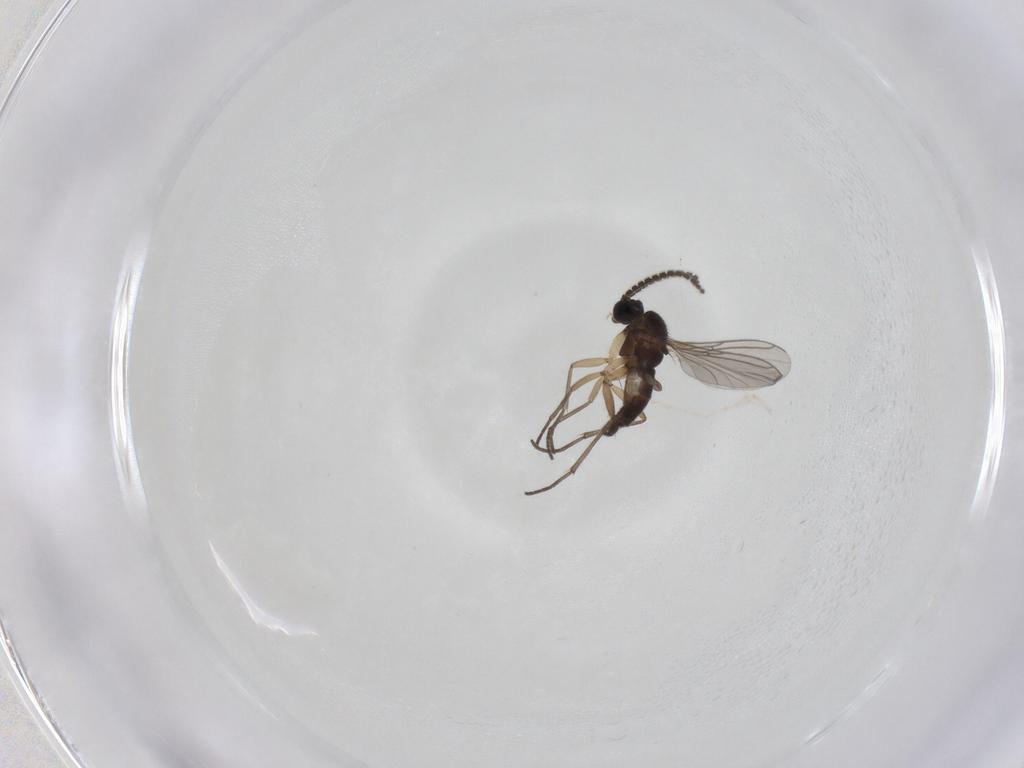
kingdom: Animalia
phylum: Arthropoda
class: Insecta
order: Diptera
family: Sciaridae
